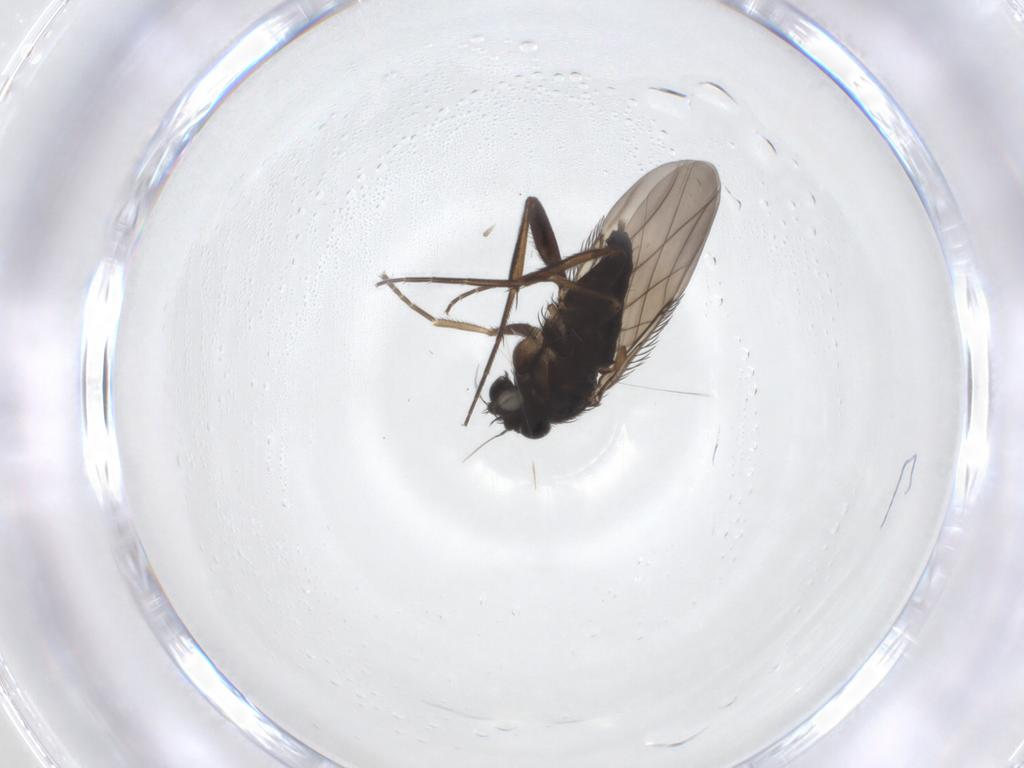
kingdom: Animalia
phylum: Arthropoda
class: Insecta
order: Diptera
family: Phoridae
